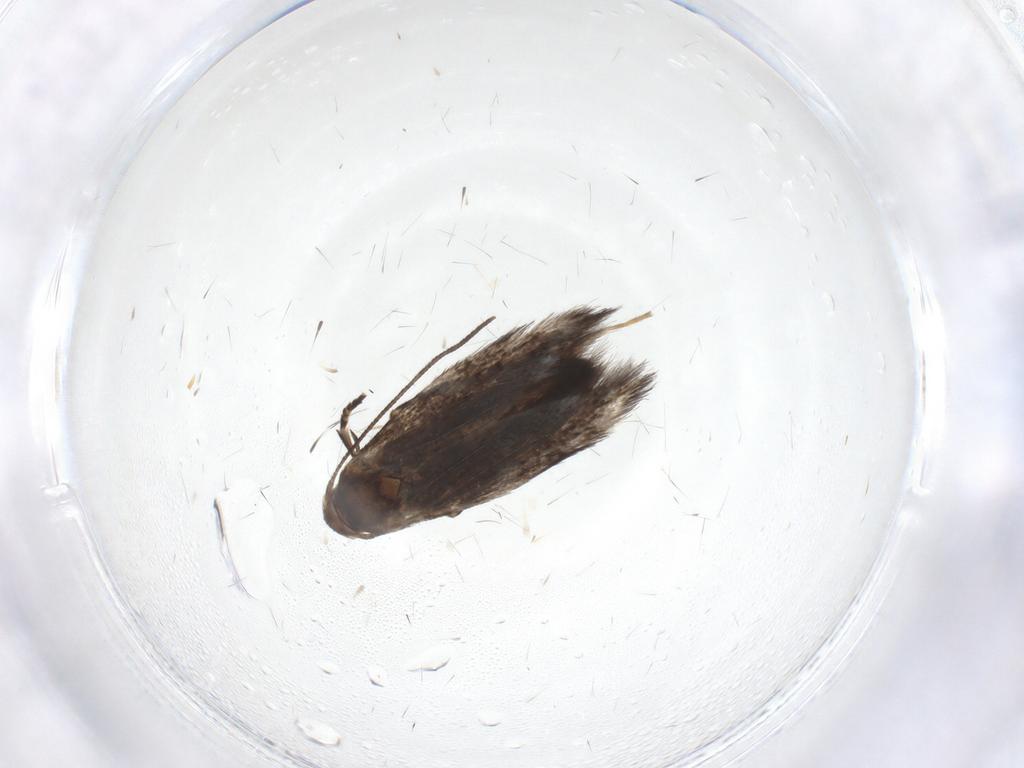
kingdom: Animalia
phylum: Arthropoda
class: Insecta
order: Lepidoptera
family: Cosmopterigidae
